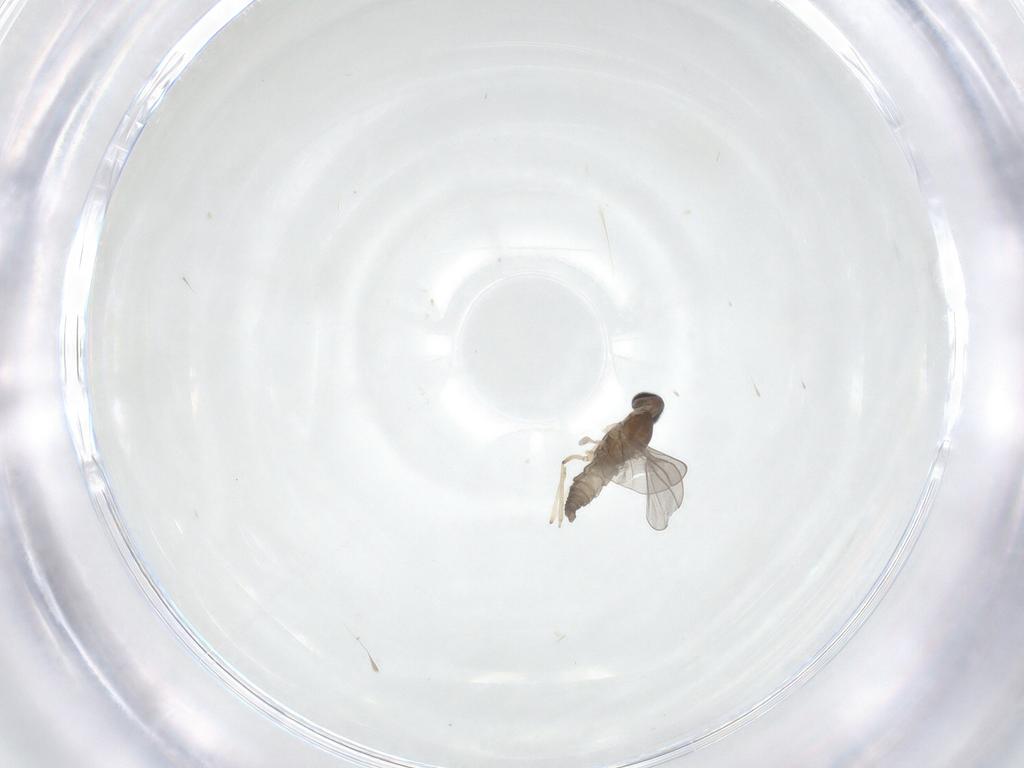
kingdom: Animalia
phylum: Arthropoda
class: Insecta
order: Diptera
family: Cecidomyiidae
